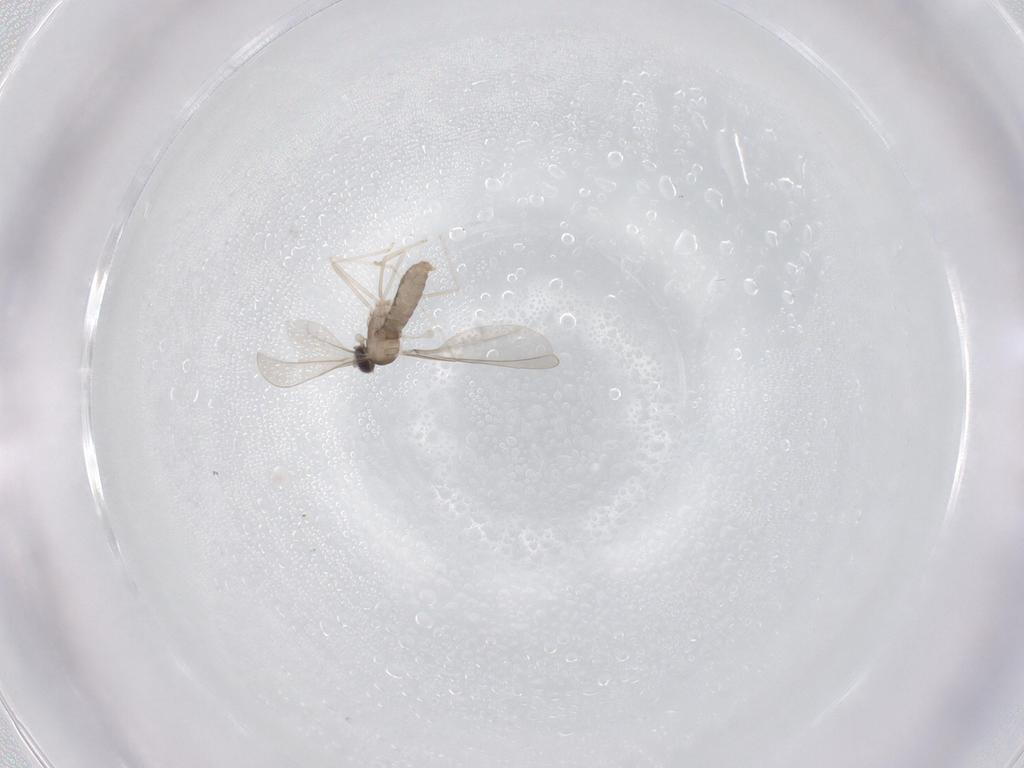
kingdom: Animalia
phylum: Arthropoda
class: Insecta
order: Diptera
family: Cecidomyiidae
